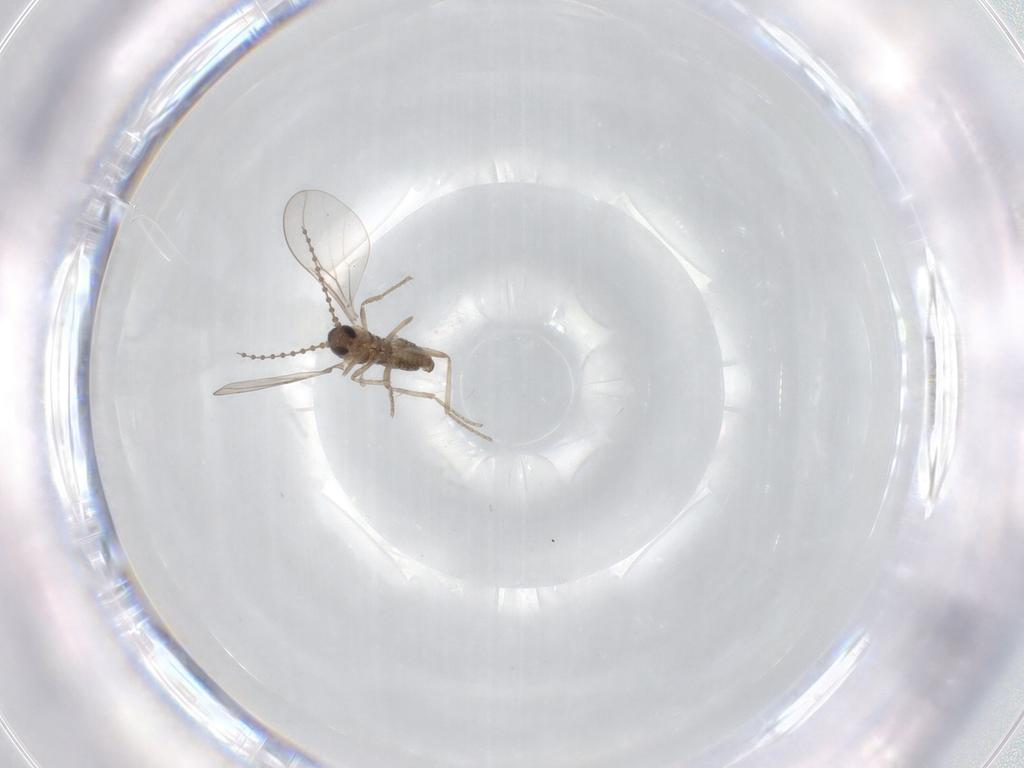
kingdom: Animalia
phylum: Arthropoda
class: Insecta
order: Diptera
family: Cecidomyiidae
